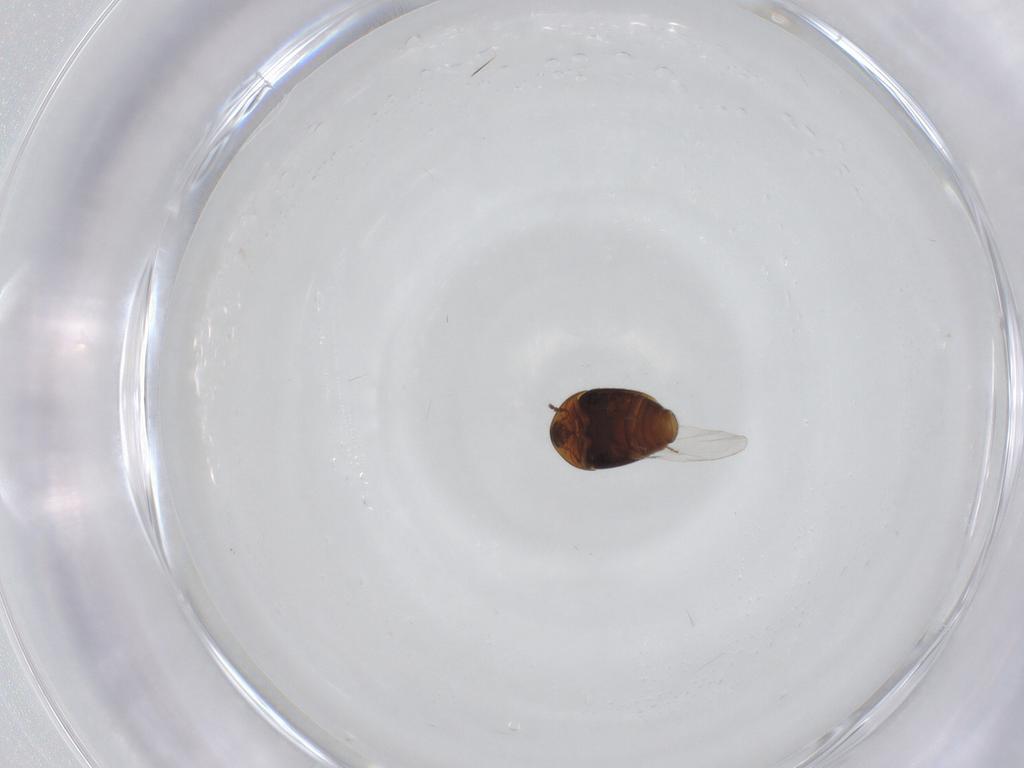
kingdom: Animalia
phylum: Arthropoda
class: Insecta
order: Coleoptera
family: Corylophidae
